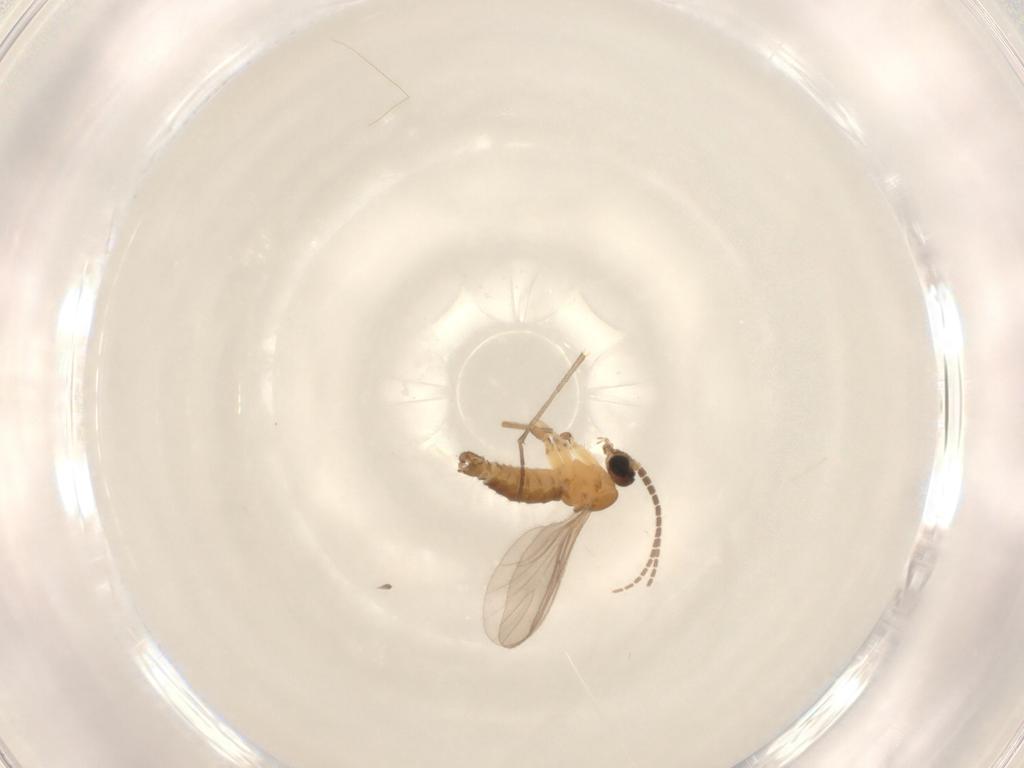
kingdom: Animalia
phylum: Arthropoda
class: Insecta
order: Diptera
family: Sciaridae
